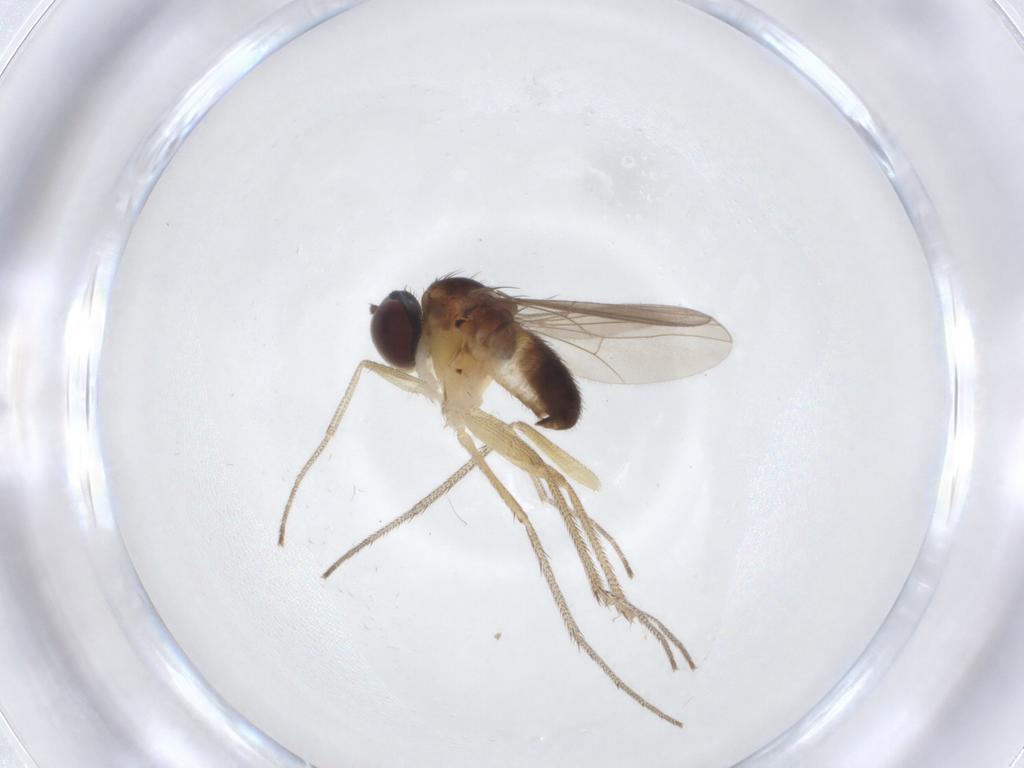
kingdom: Animalia
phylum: Arthropoda
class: Insecta
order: Diptera
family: Dolichopodidae
